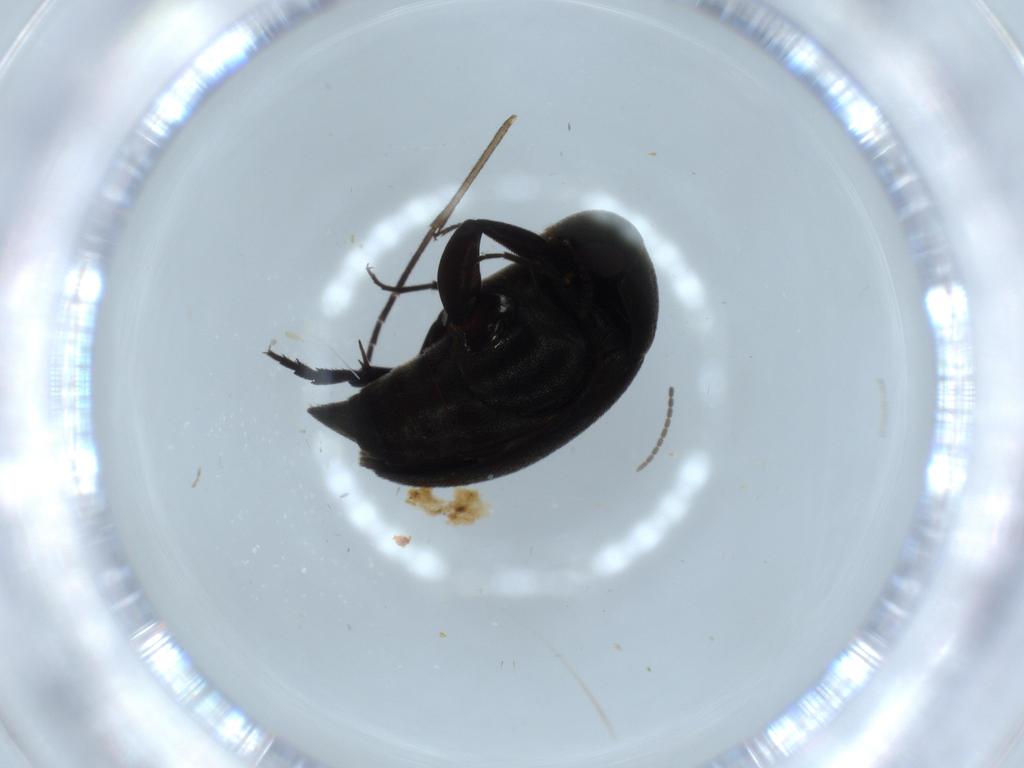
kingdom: Animalia
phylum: Arthropoda
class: Insecta
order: Coleoptera
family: Mordellidae
